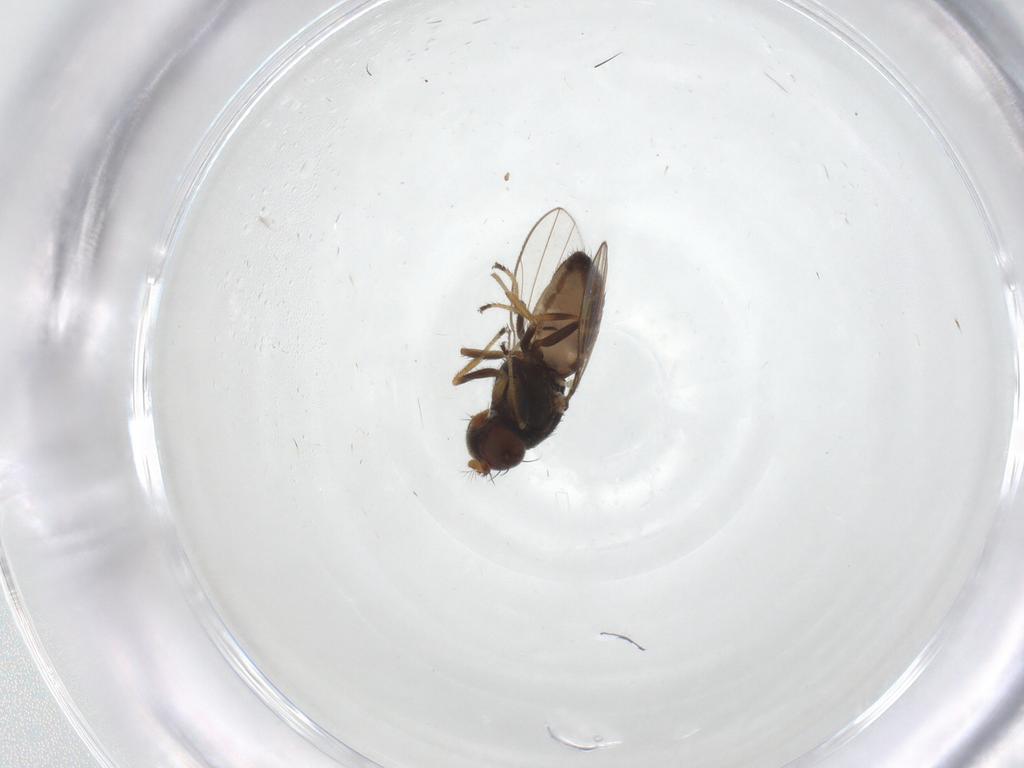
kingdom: Animalia
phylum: Arthropoda
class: Insecta
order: Diptera
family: Ephydridae
